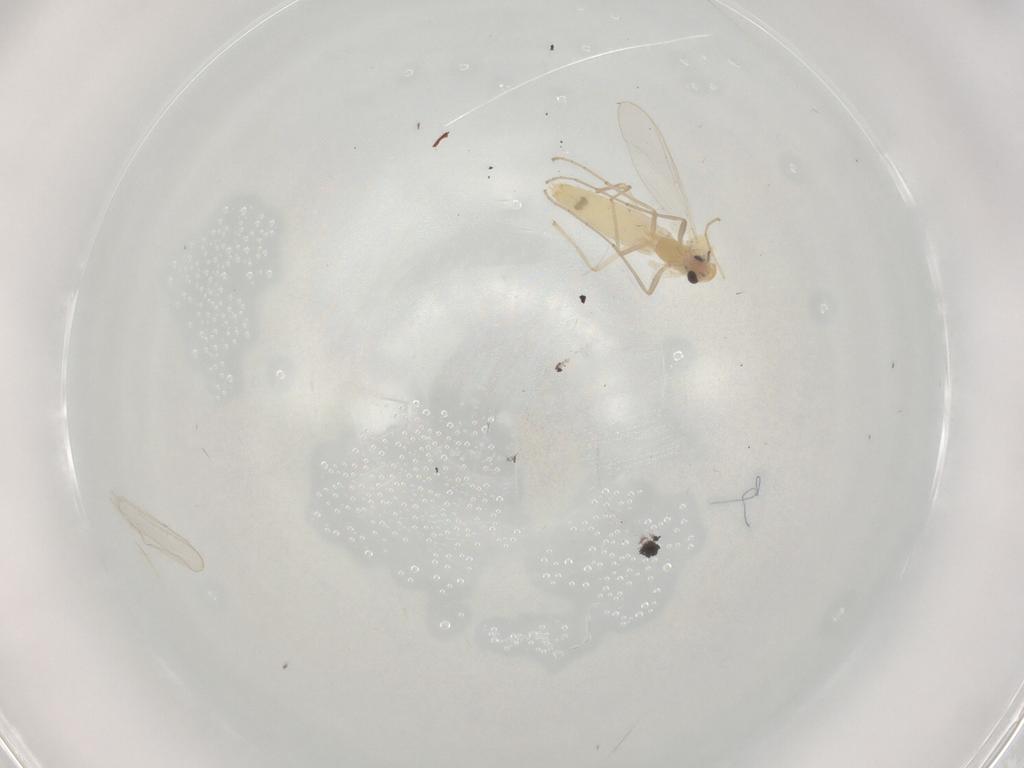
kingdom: Animalia
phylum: Arthropoda
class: Insecta
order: Diptera
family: Chironomidae
